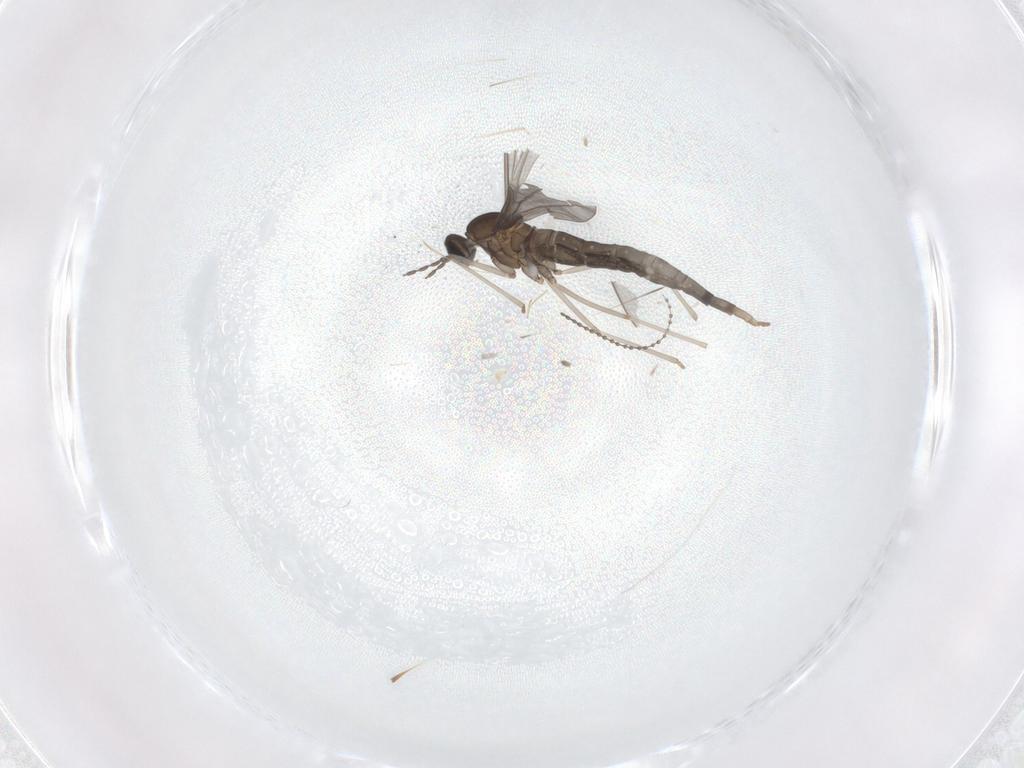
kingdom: Animalia
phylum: Arthropoda
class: Insecta
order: Diptera
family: Cecidomyiidae
